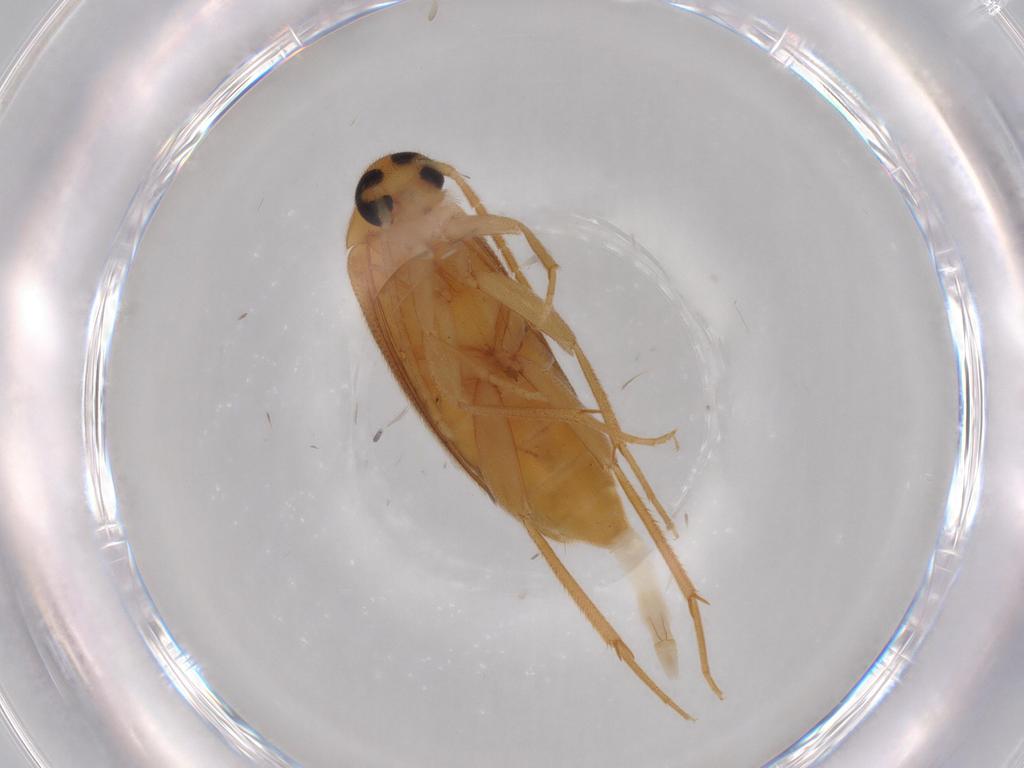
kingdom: Animalia
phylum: Arthropoda
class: Insecta
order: Coleoptera
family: Scraptiidae
